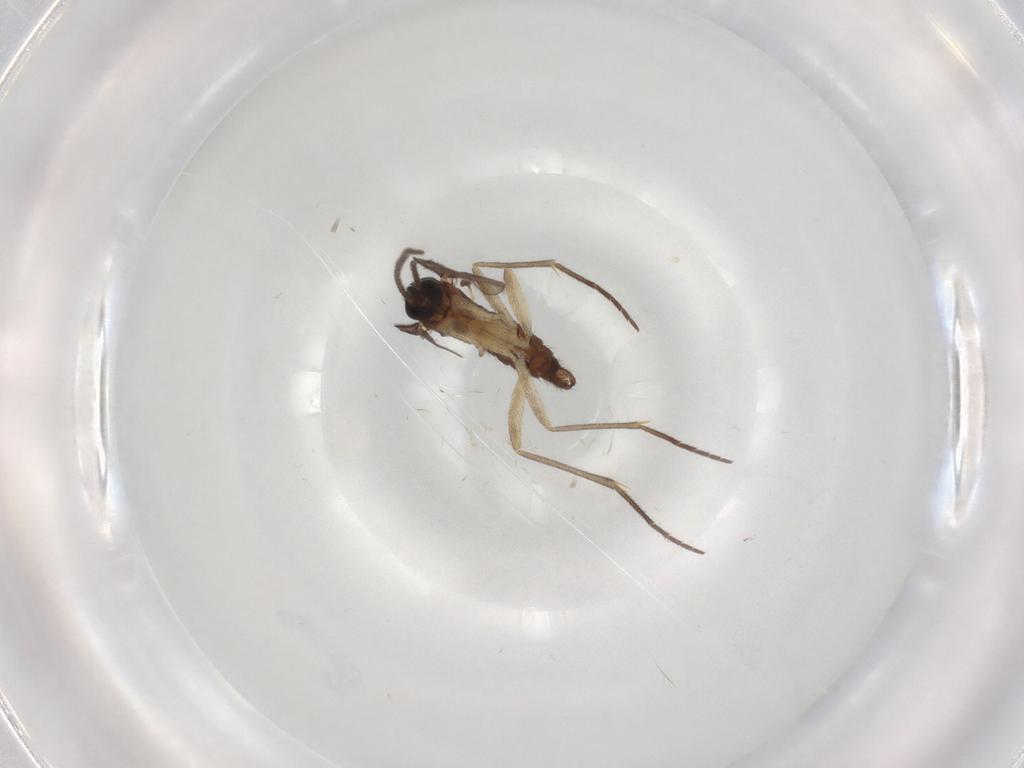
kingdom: Animalia
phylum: Arthropoda
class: Insecta
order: Diptera
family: Sciaridae
